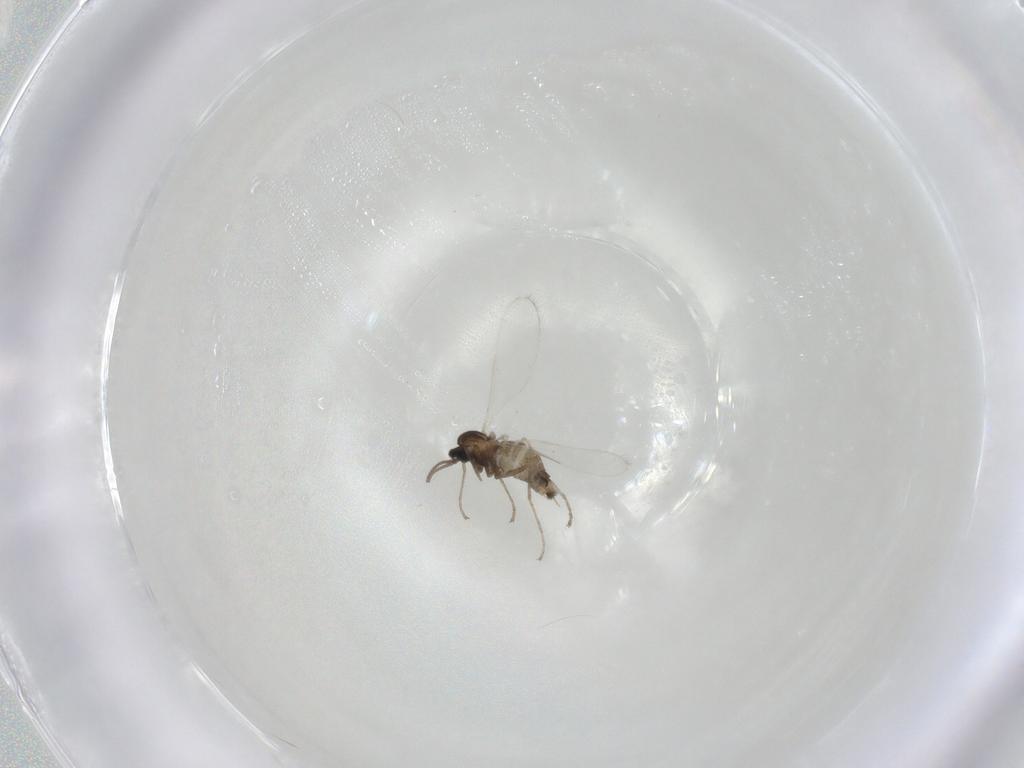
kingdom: Animalia
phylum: Arthropoda
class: Insecta
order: Diptera
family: Cecidomyiidae
